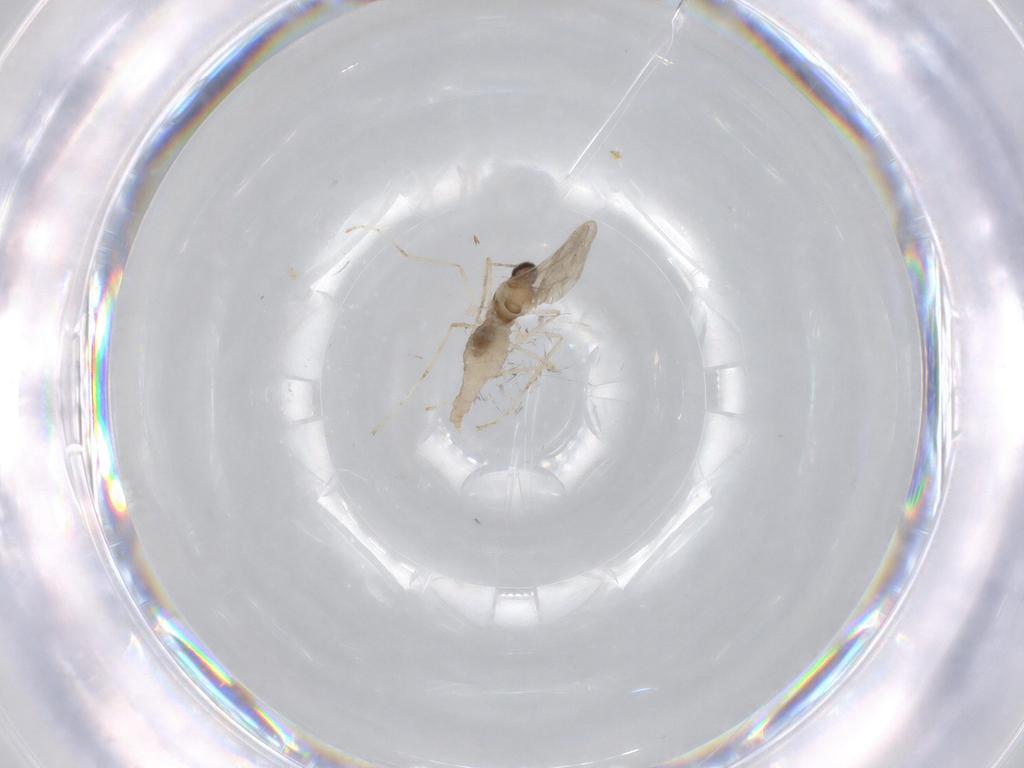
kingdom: Animalia
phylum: Arthropoda
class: Insecta
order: Diptera
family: Cecidomyiidae
